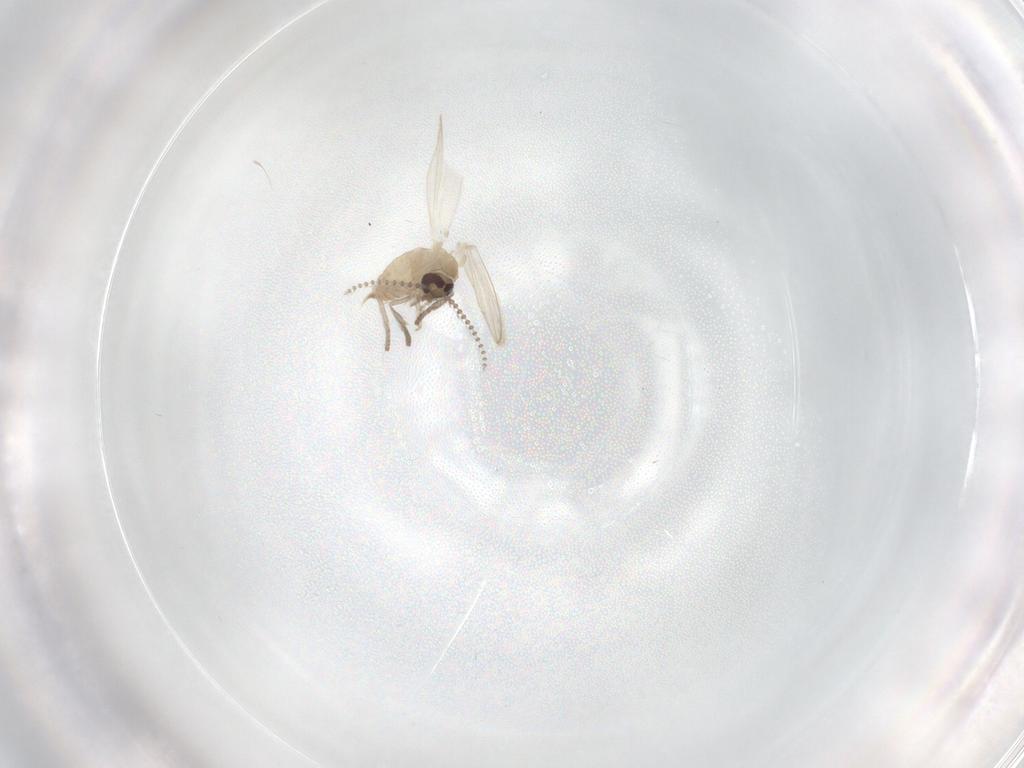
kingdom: Animalia
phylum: Arthropoda
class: Insecta
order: Diptera
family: Psychodidae
